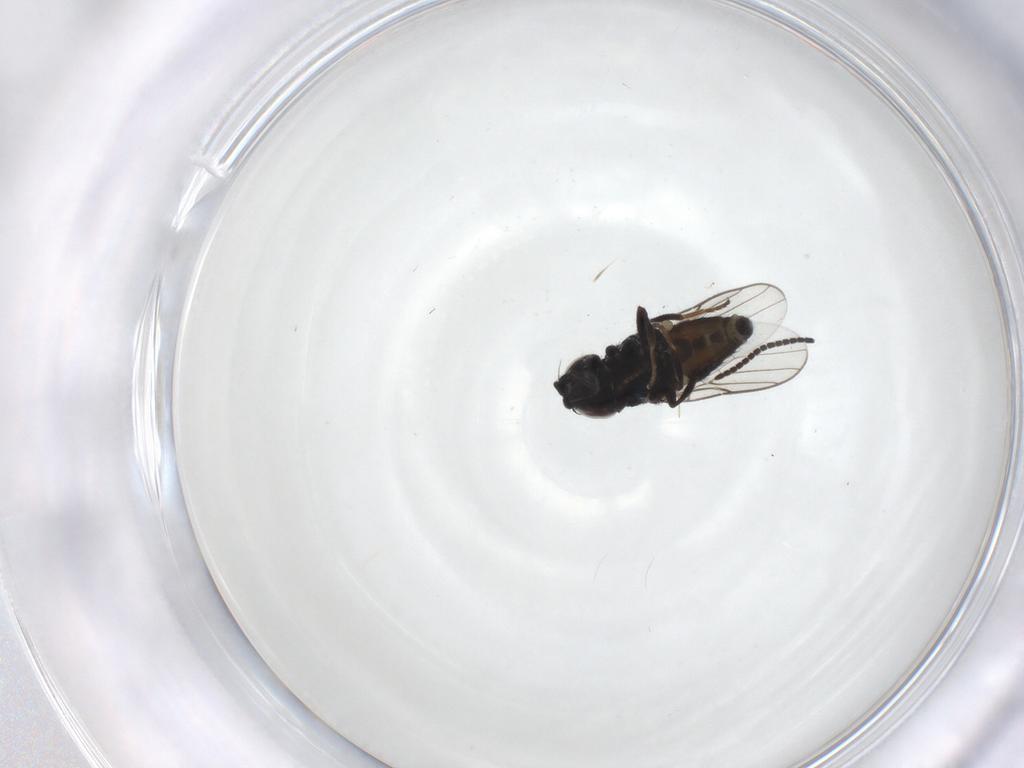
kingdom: Animalia
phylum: Arthropoda
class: Insecta
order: Diptera
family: Chloropidae
